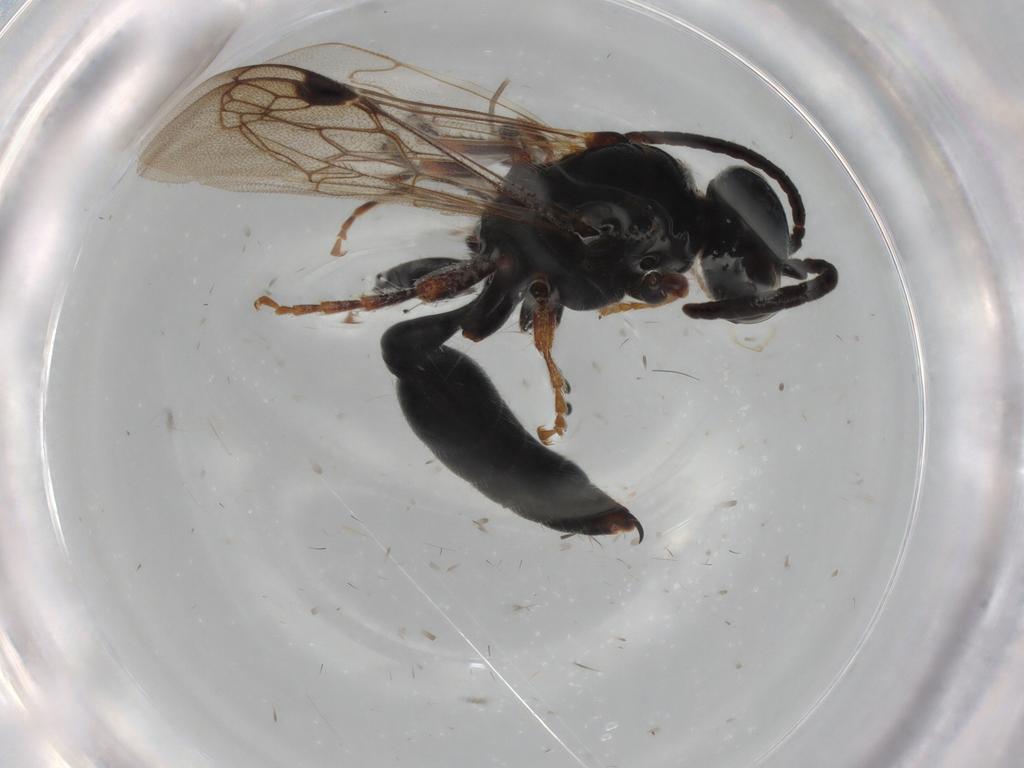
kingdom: Animalia
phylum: Arthropoda
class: Insecta
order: Hymenoptera
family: Tiphiidae
